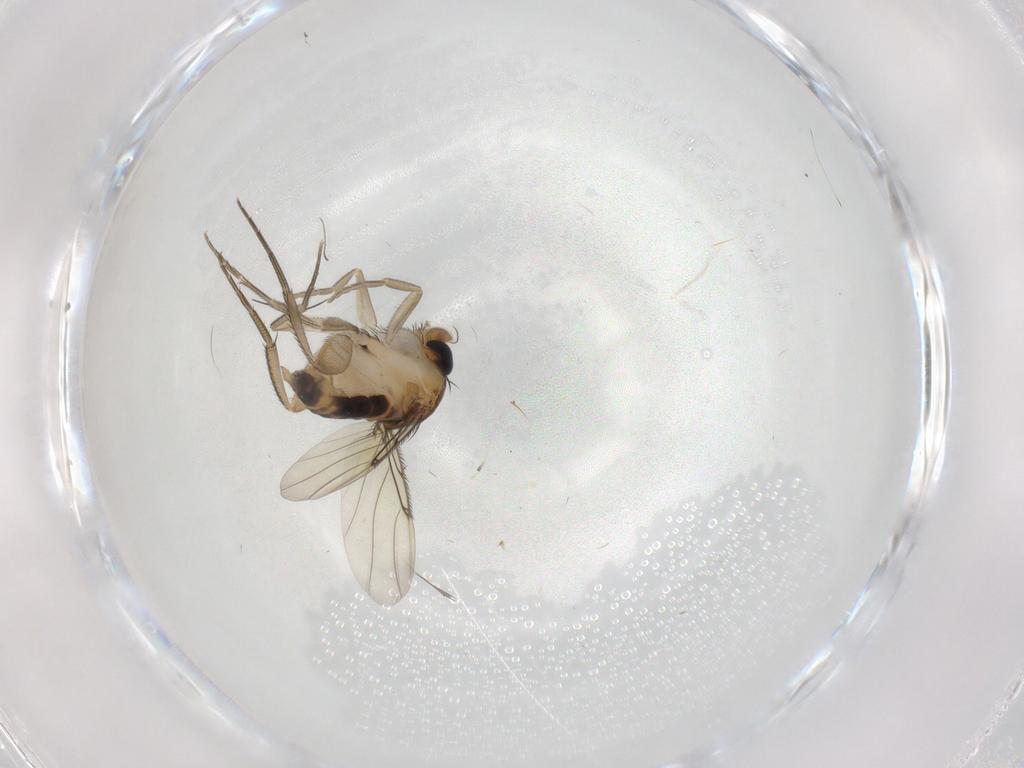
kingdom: Animalia
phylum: Arthropoda
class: Insecta
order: Diptera
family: Phoridae
